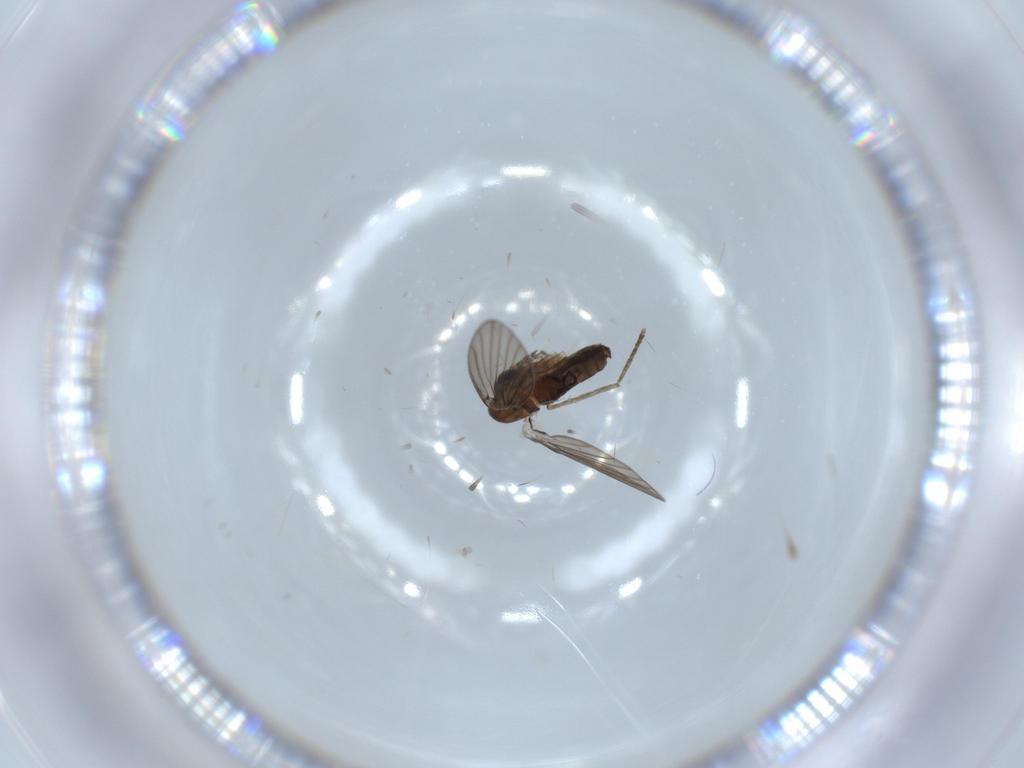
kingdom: Animalia
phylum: Arthropoda
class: Insecta
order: Diptera
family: Psychodidae
